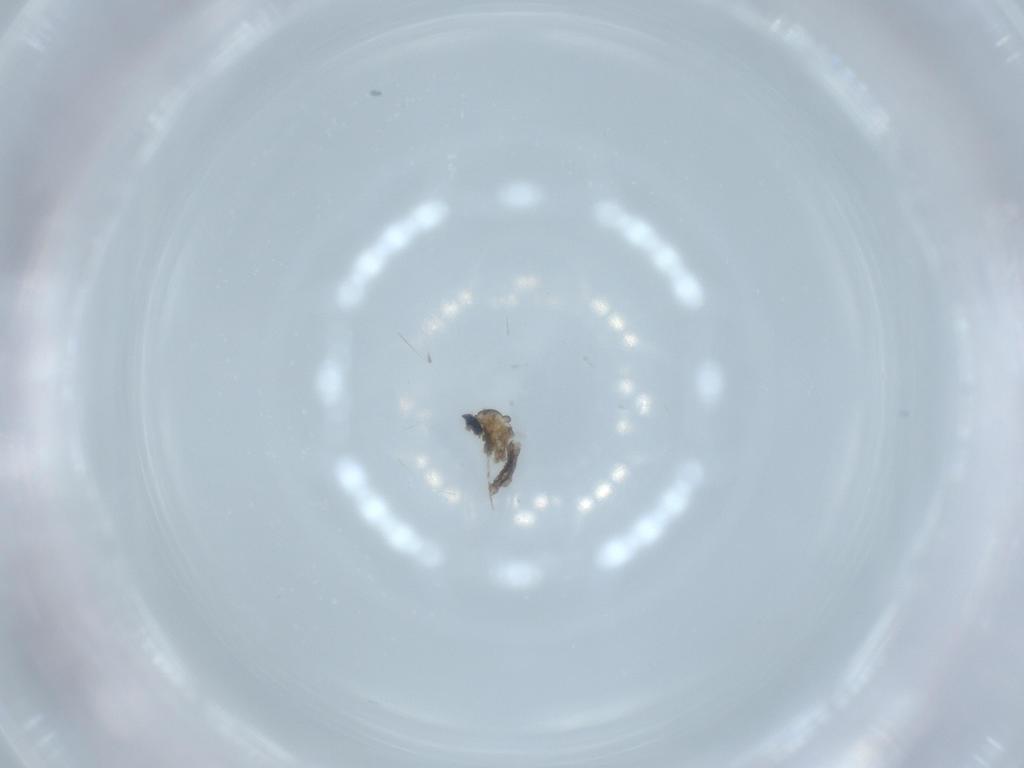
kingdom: Animalia
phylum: Arthropoda
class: Insecta
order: Diptera
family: Cecidomyiidae
